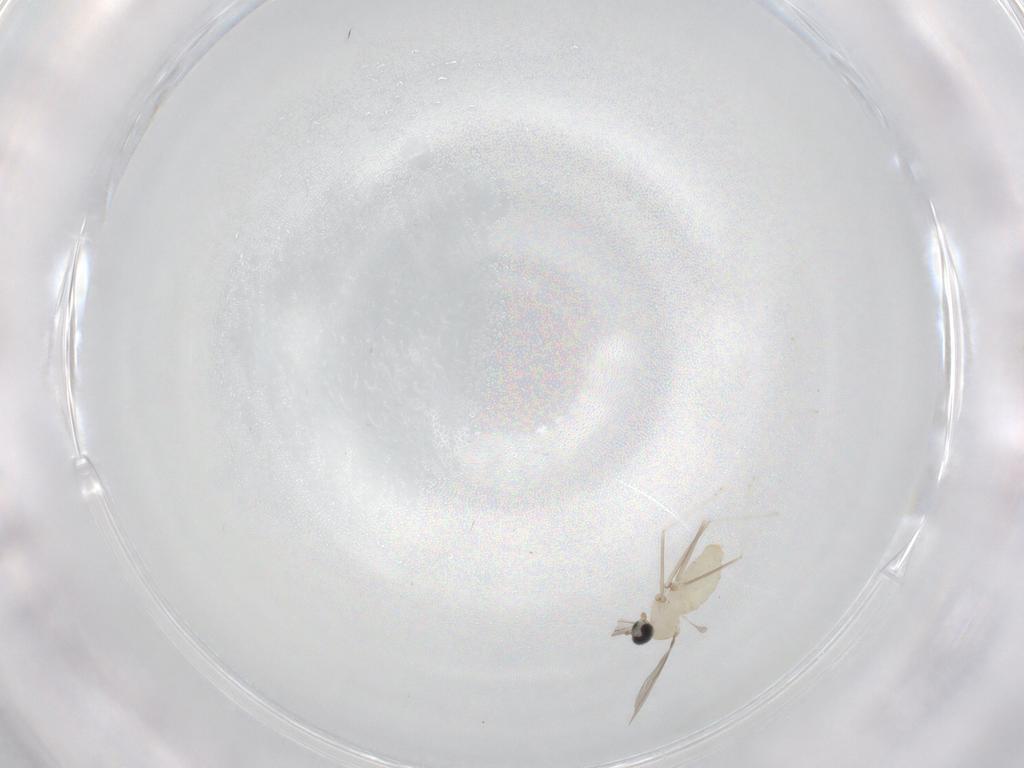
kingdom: Animalia
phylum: Arthropoda
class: Insecta
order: Diptera
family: Cecidomyiidae
